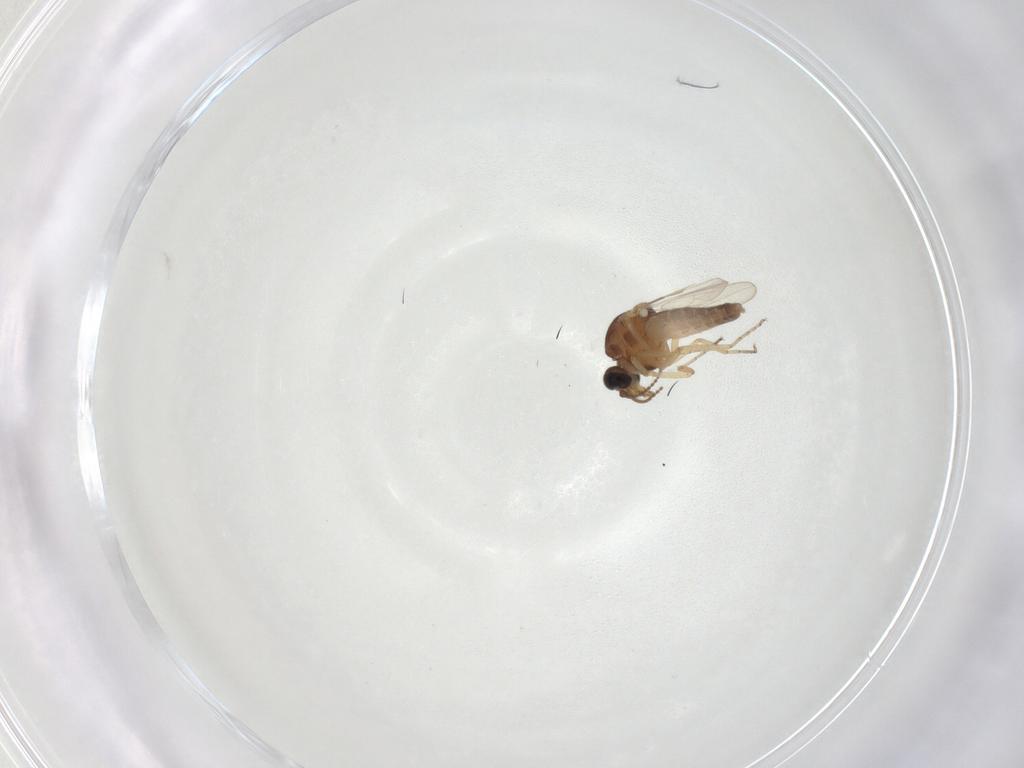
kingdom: Animalia
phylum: Arthropoda
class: Insecta
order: Diptera
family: Ceratopogonidae
